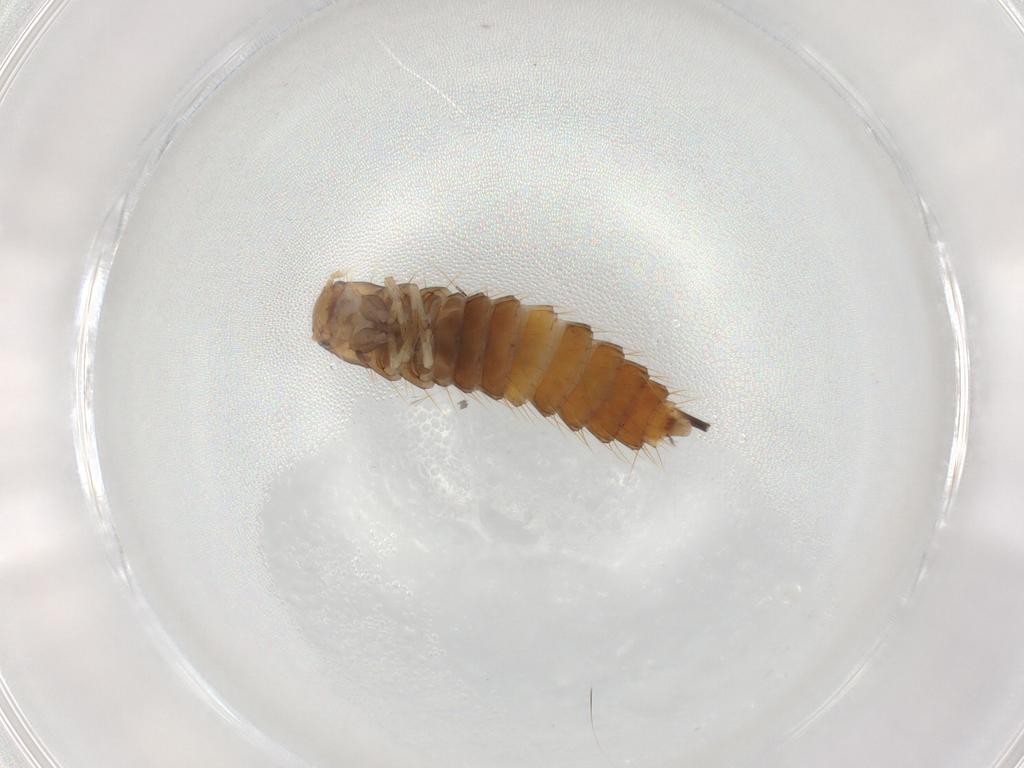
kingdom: Animalia
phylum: Arthropoda
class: Insecta
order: Coleoptera
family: Staphylinidae
